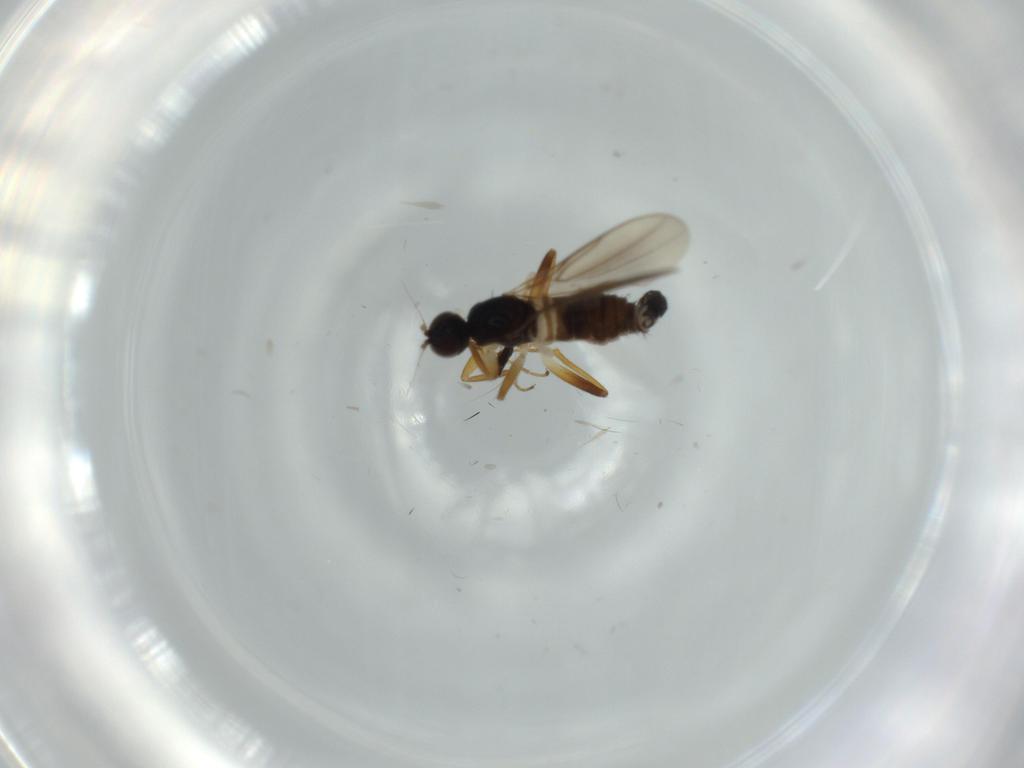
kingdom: Animalia
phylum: Arthropoda
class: Insecta
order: Diptera
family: Hybotidae
